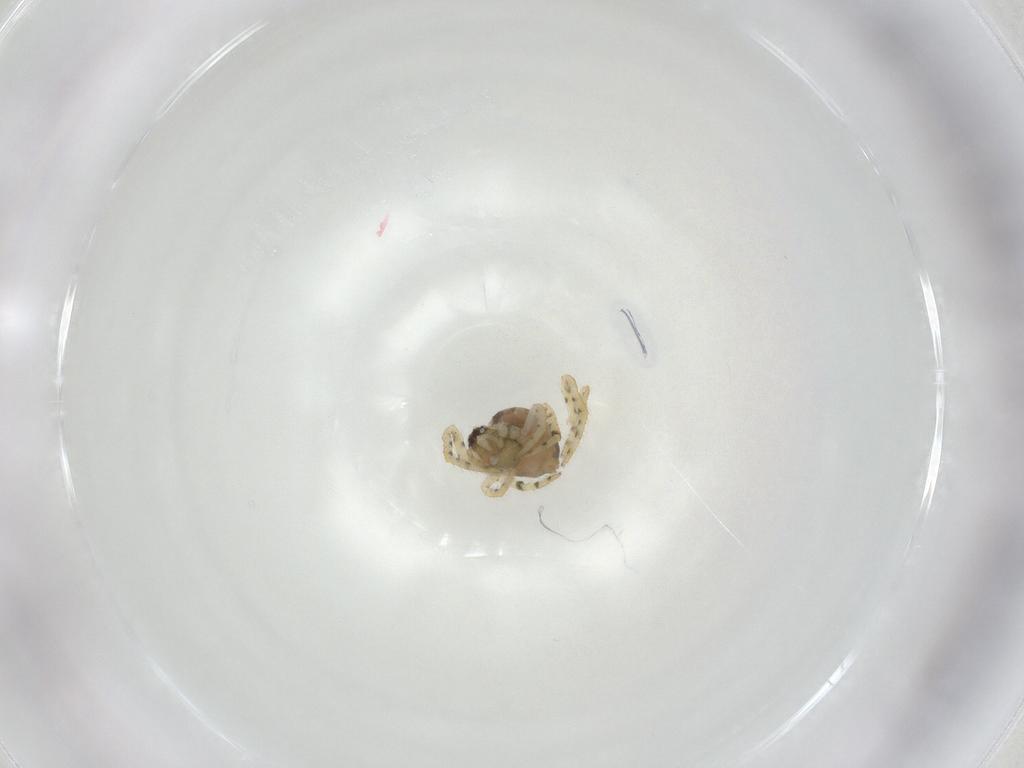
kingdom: Animalia
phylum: Arthropoda
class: Arachnida
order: Araneae
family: Theridiidae
